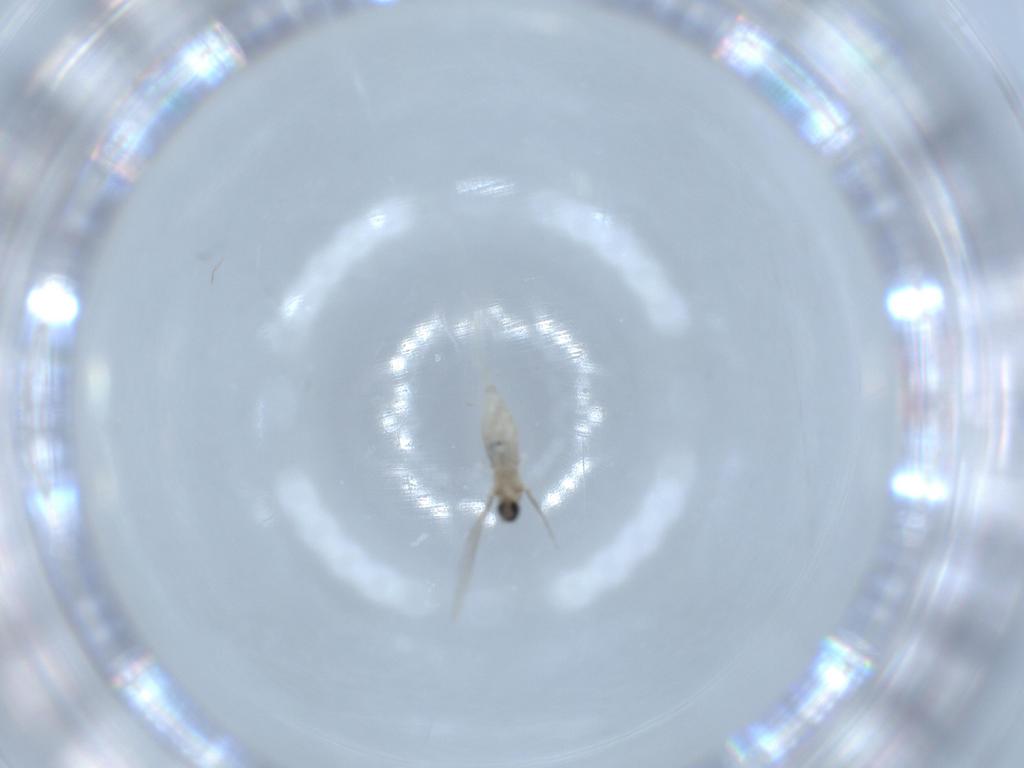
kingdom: Animalia
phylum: Arthropoda
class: Insecta
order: Diptera
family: Cecidomyiidae
